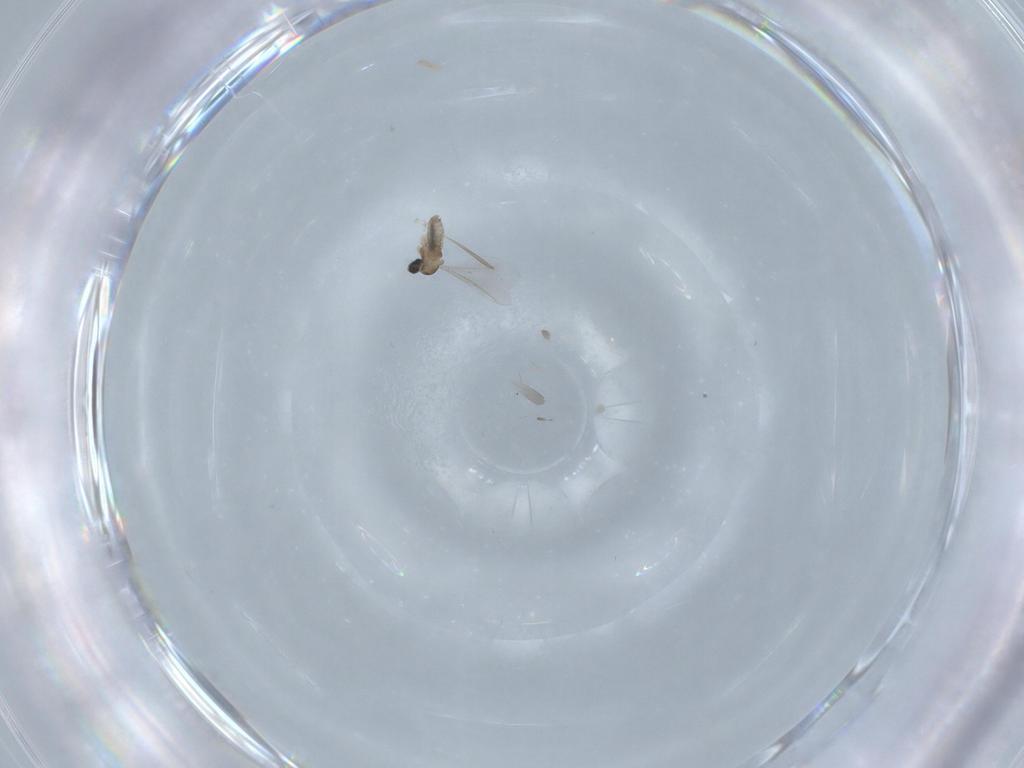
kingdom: Animalia
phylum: Arthropoda
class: Insecta
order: Diptera
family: Cecidomyiidae
